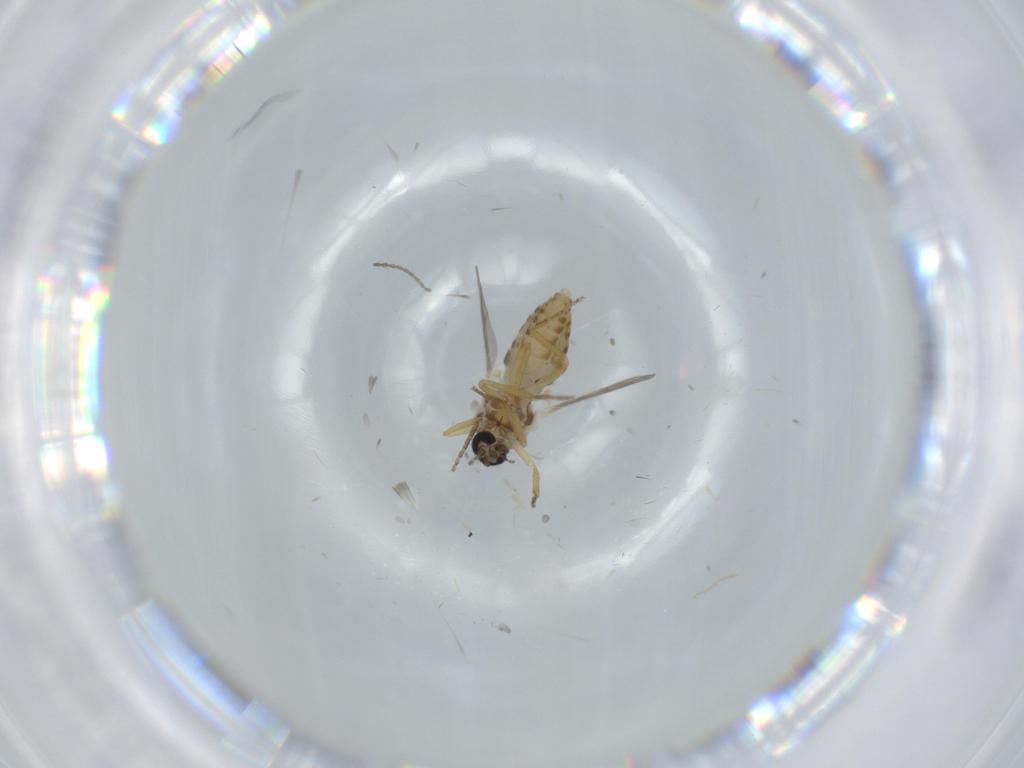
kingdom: Animalia
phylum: Arthropoda
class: Insecta
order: Diptera
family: Ceratopogonidae
